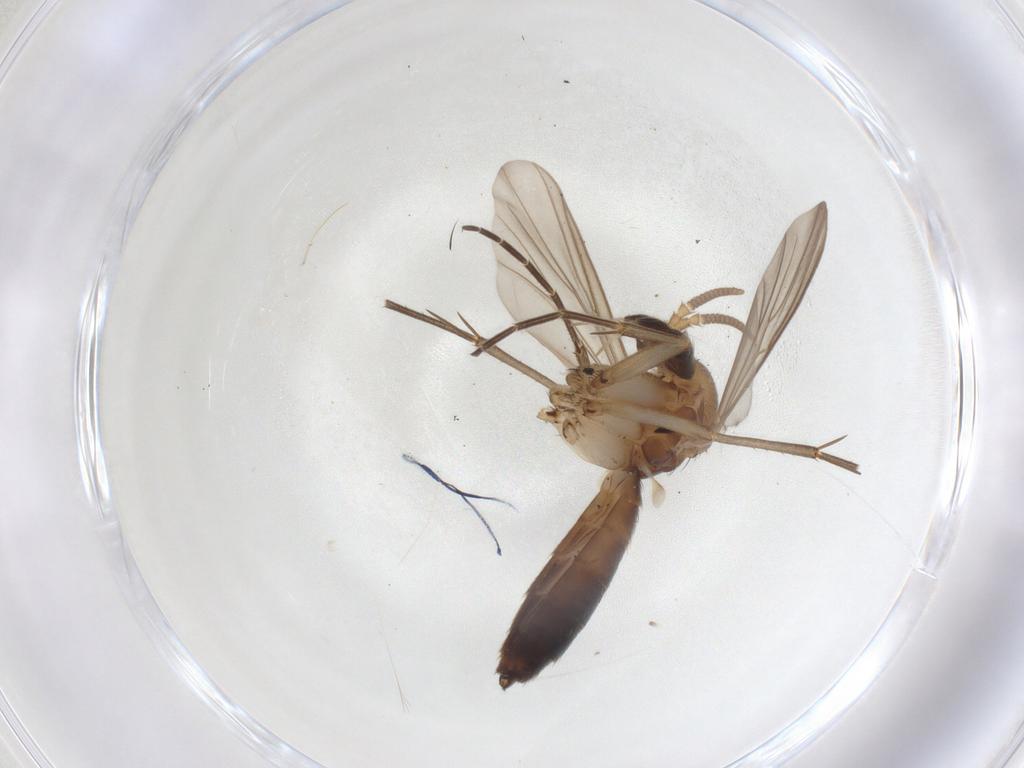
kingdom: Animalia
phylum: Arthropoda
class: Insecta
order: Diptera
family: Mycetophilidae
